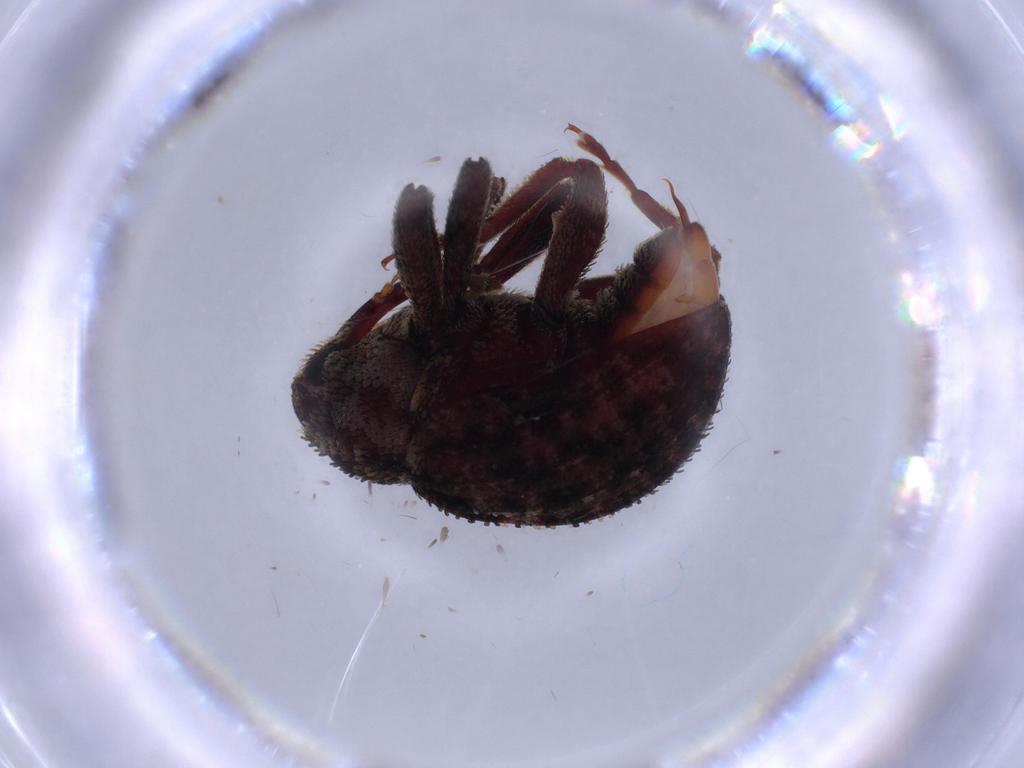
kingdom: Animalia
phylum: Arthropoda
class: Insecta
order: Coleoptera
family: Curculionidae
